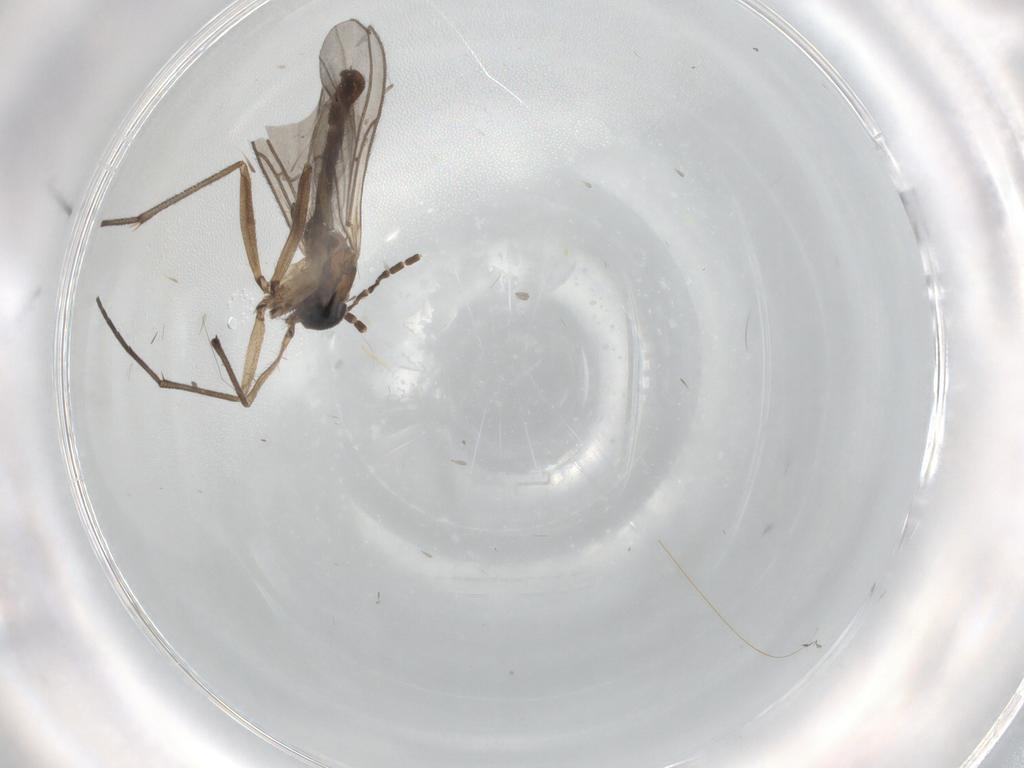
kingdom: Animalia
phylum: Arthropoda
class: Insecta
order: Diptera
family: Sciaridae
